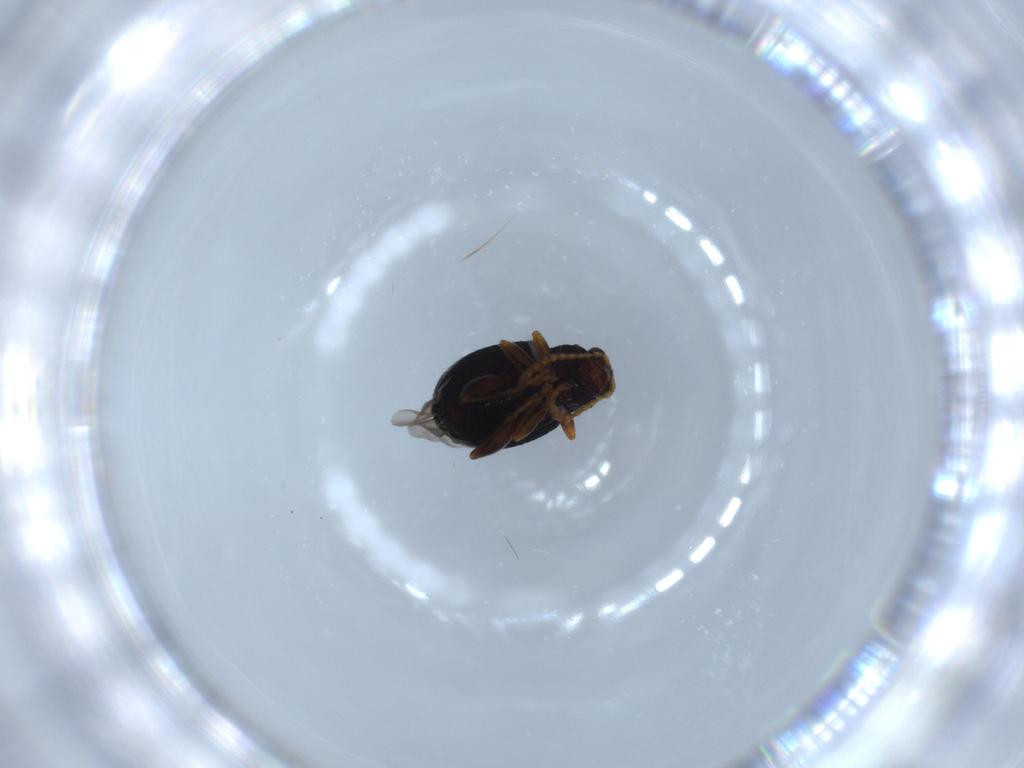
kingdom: Animalia
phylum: Arthropoda
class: Insecta
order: Coleoptera
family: Chrysomelidae
